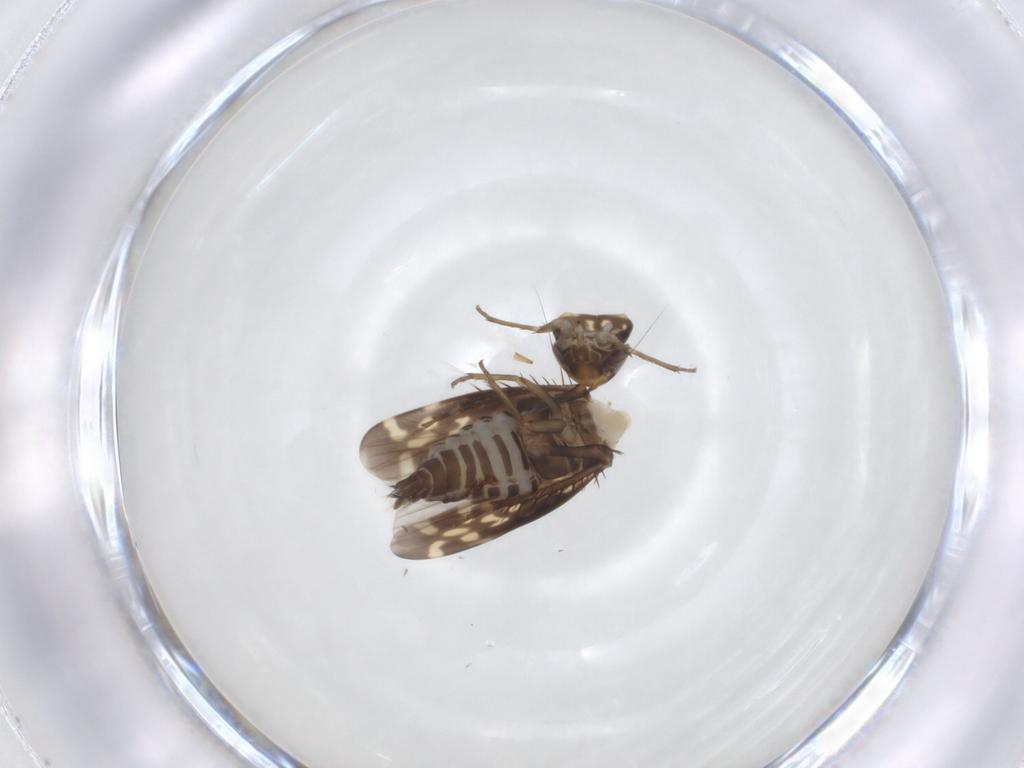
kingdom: Animalia
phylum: Arthropoda
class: Insecta
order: Hemiptera
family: Cicadellidae
